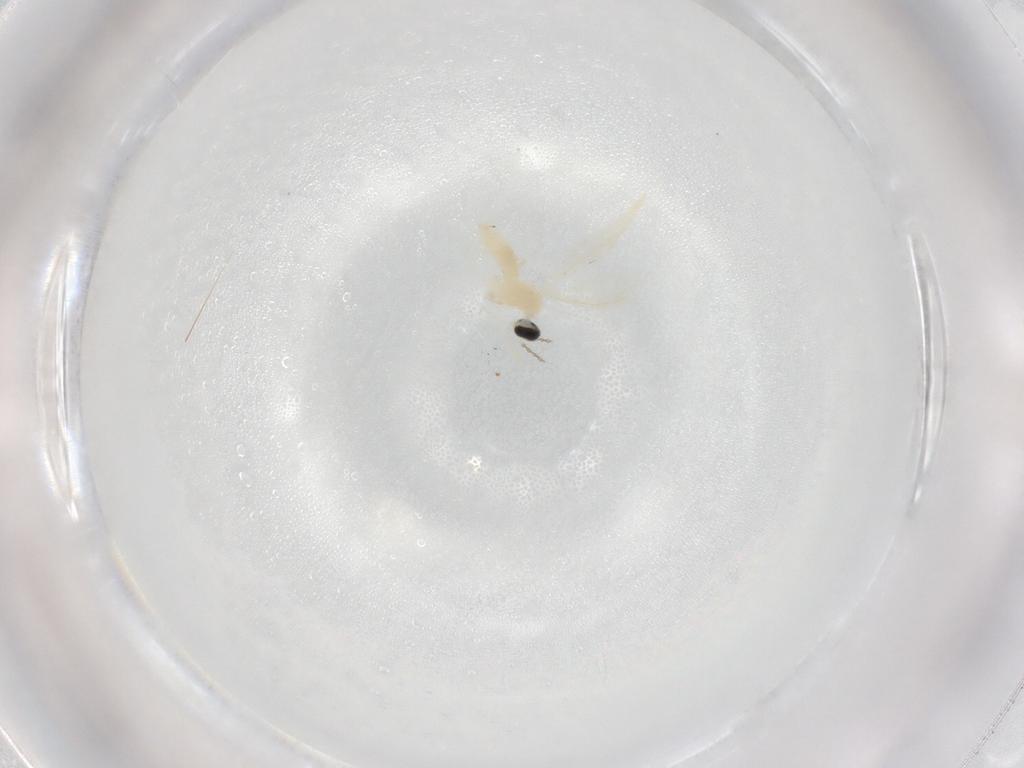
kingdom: Animalia
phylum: Arthropoda
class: Insecta
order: Diptera
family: Cecidomyiidae
